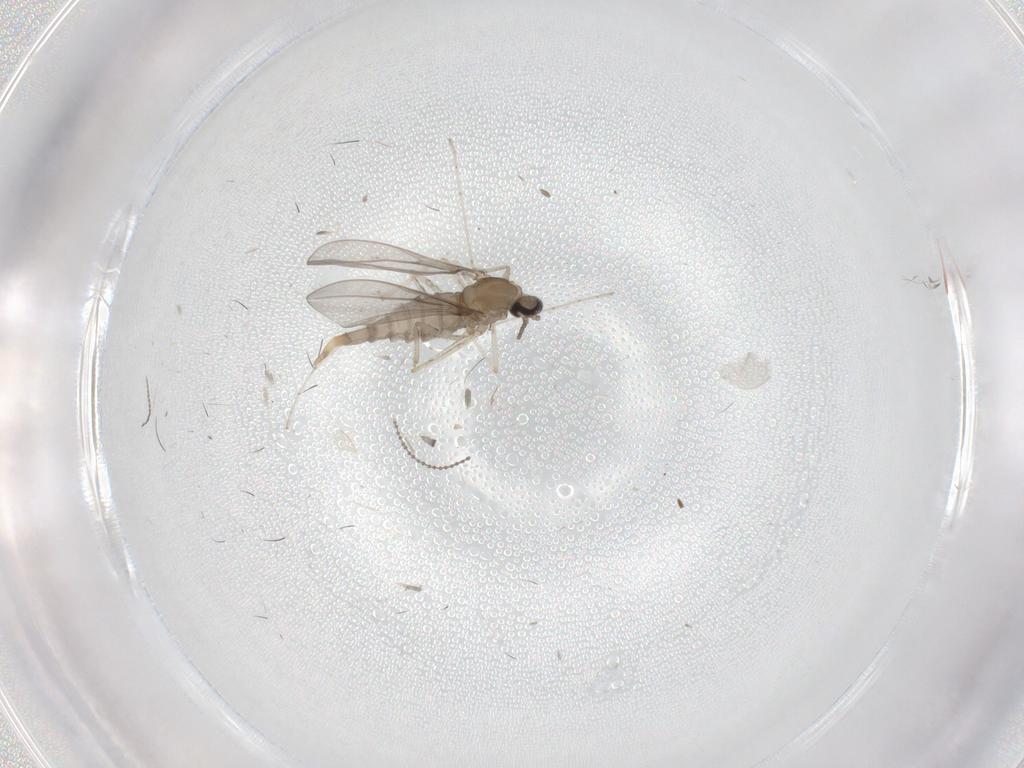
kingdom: Animalia
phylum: Arthropoda
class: Insecta
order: Diptera
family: Cecidomyiidae
